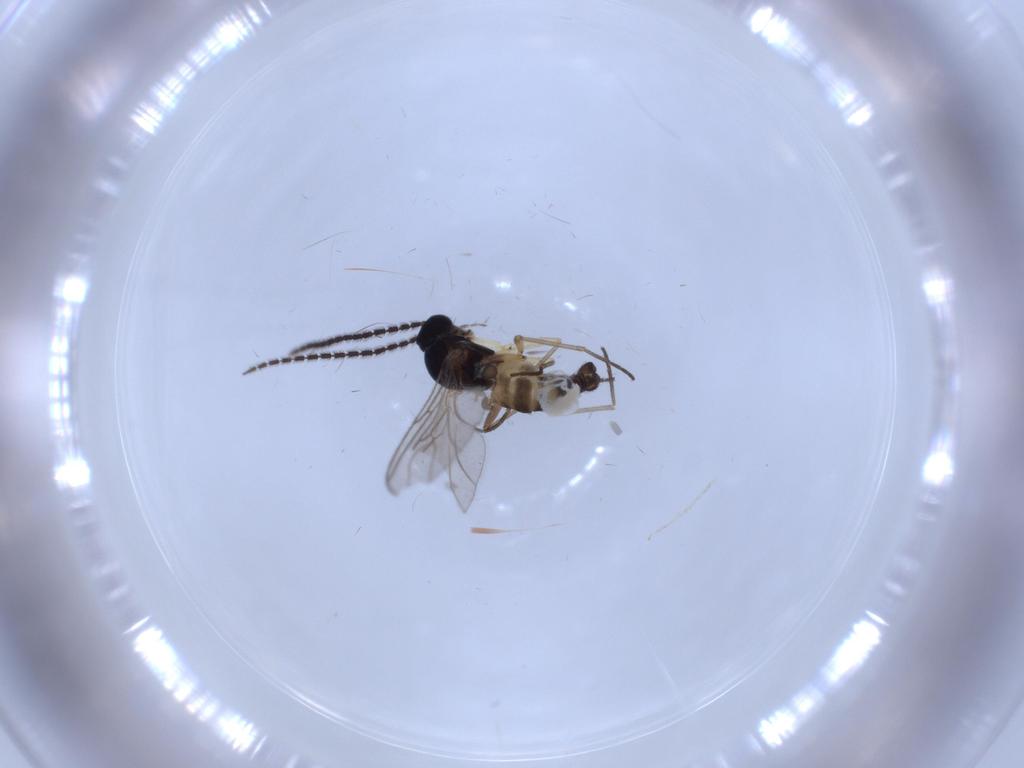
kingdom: Animalia
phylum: Arthropoda
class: Insecta
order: Diptera
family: Sciaridae
